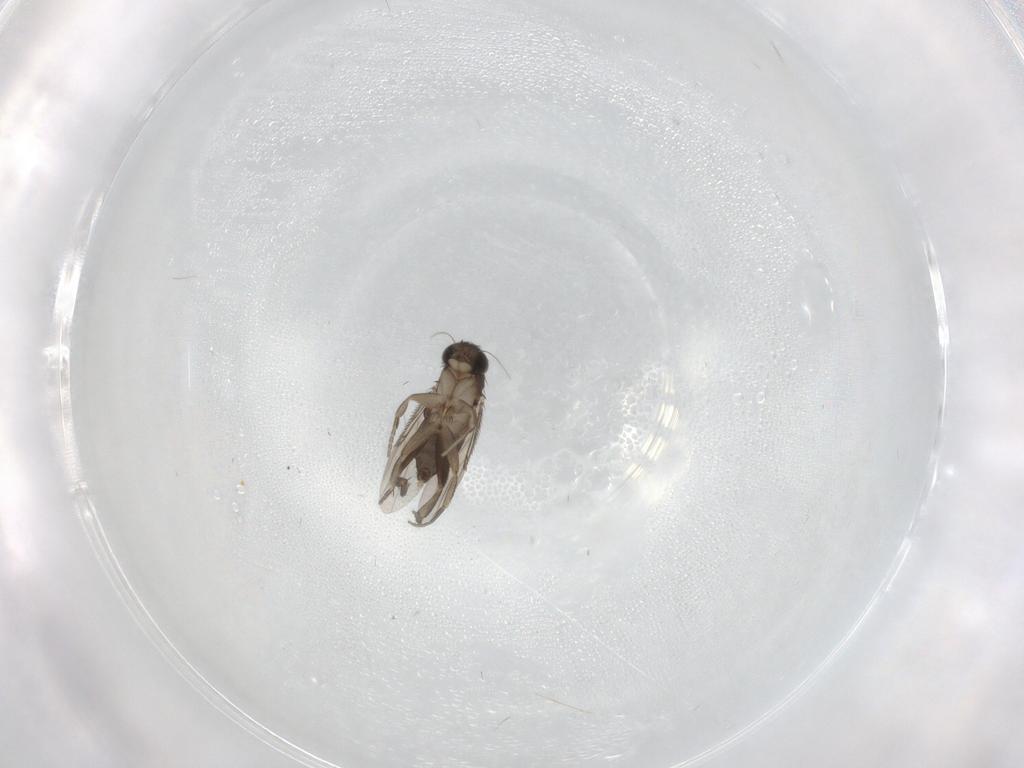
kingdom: Animalia
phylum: Arthropoda
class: Insecta
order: Diptera
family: Phoridae
